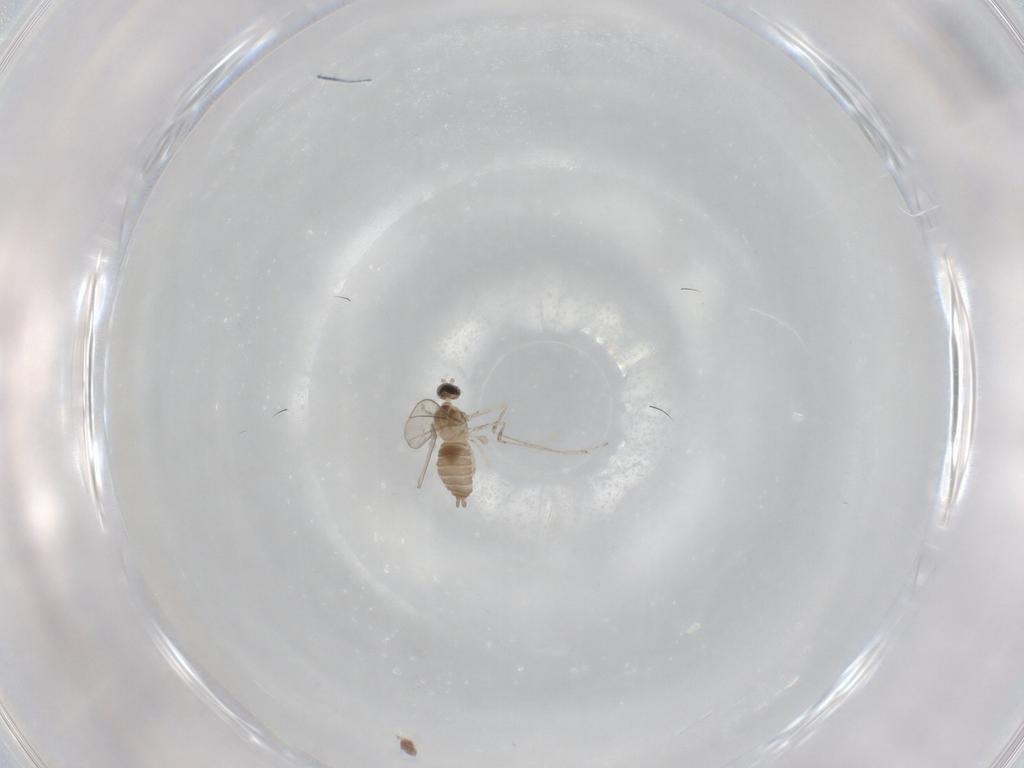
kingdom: Animalia
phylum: Arthropoda
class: Insecta
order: Diptera
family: Cecidomyiidae
